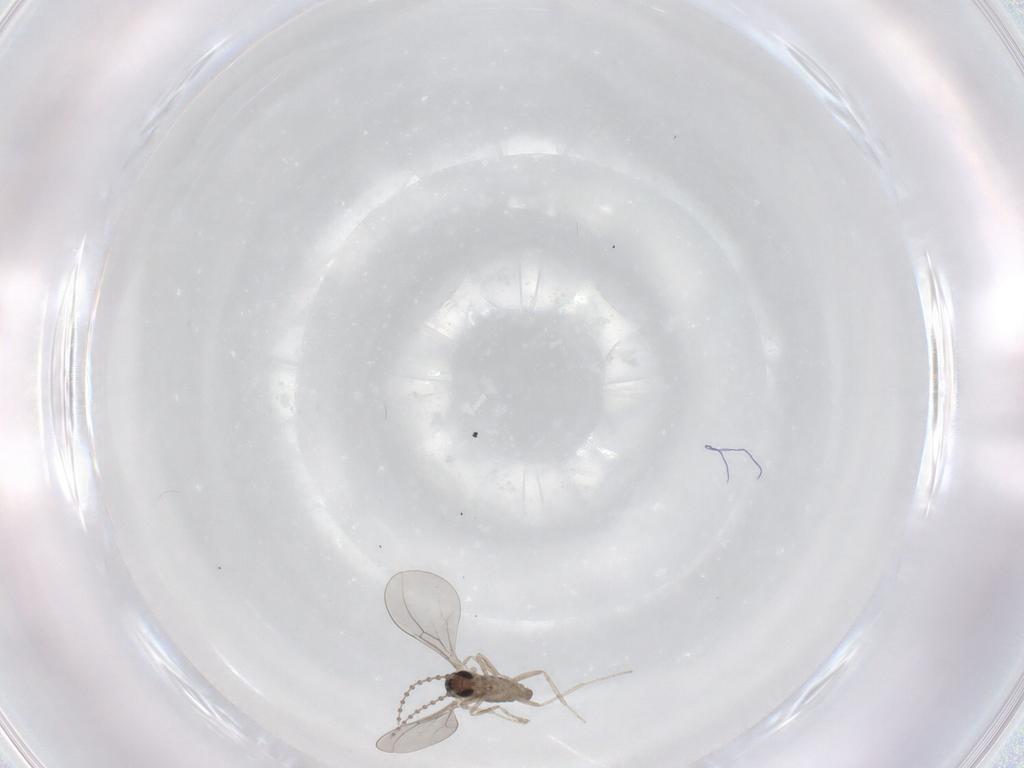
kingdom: Animalia
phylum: Arthropoda
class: Insecta
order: Diptera
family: Cecidomyiidae
